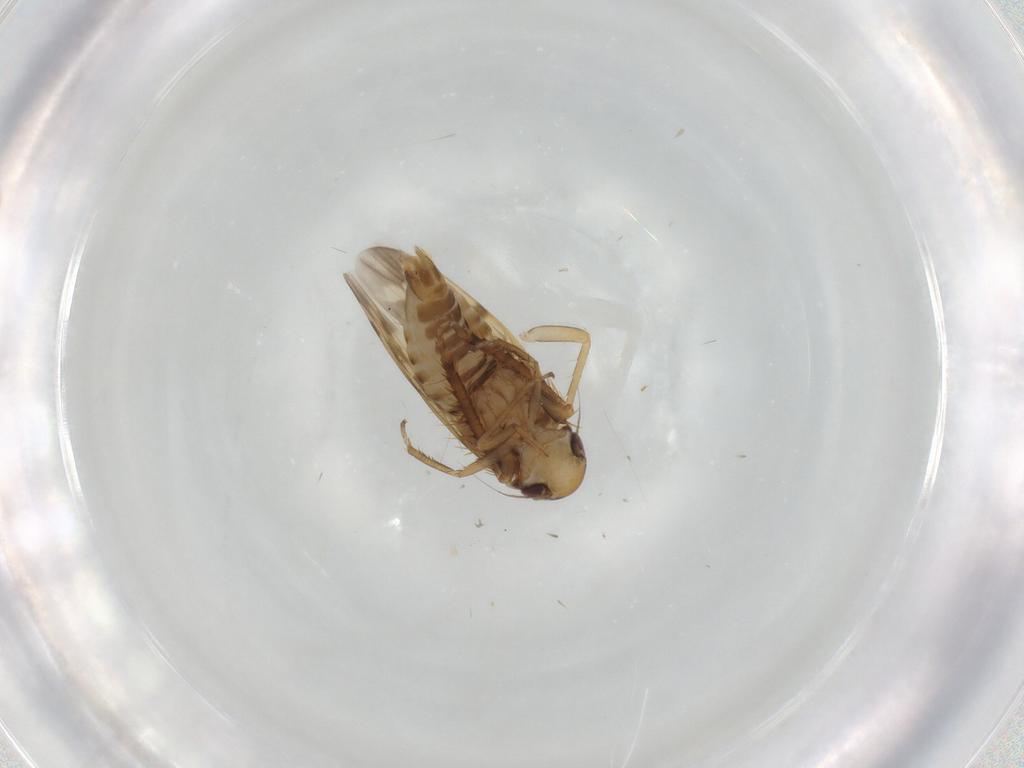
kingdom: Animalia
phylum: Arthropoda
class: Insecta
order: Hemiptera
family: Cicadellidae
